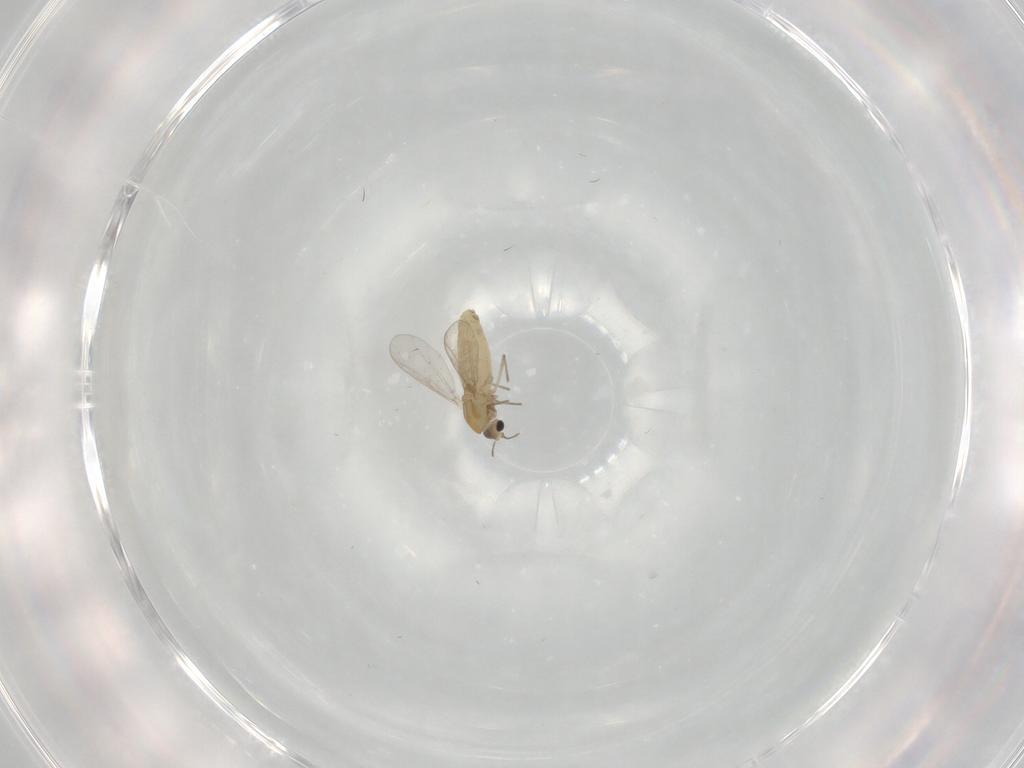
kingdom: Animalia
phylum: Arthropoda
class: Insecta
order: Diptera
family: Chironomidae
